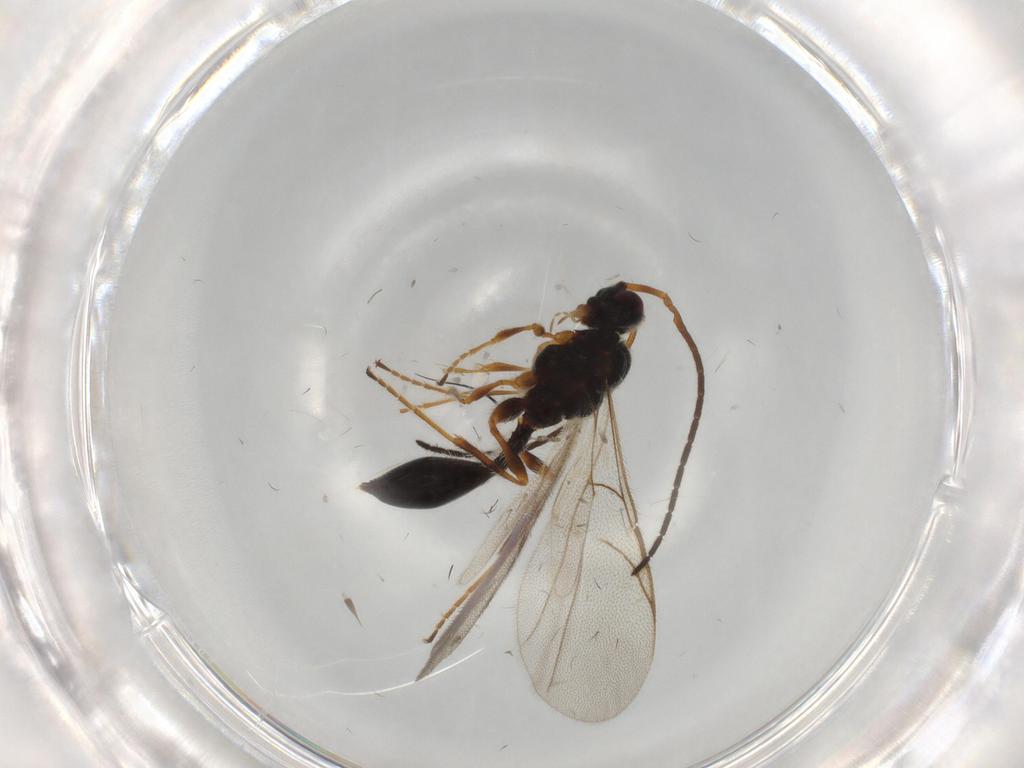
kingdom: Animalia
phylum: Arthropoda
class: Insecta
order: Hymenoptera
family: Diapriidae
